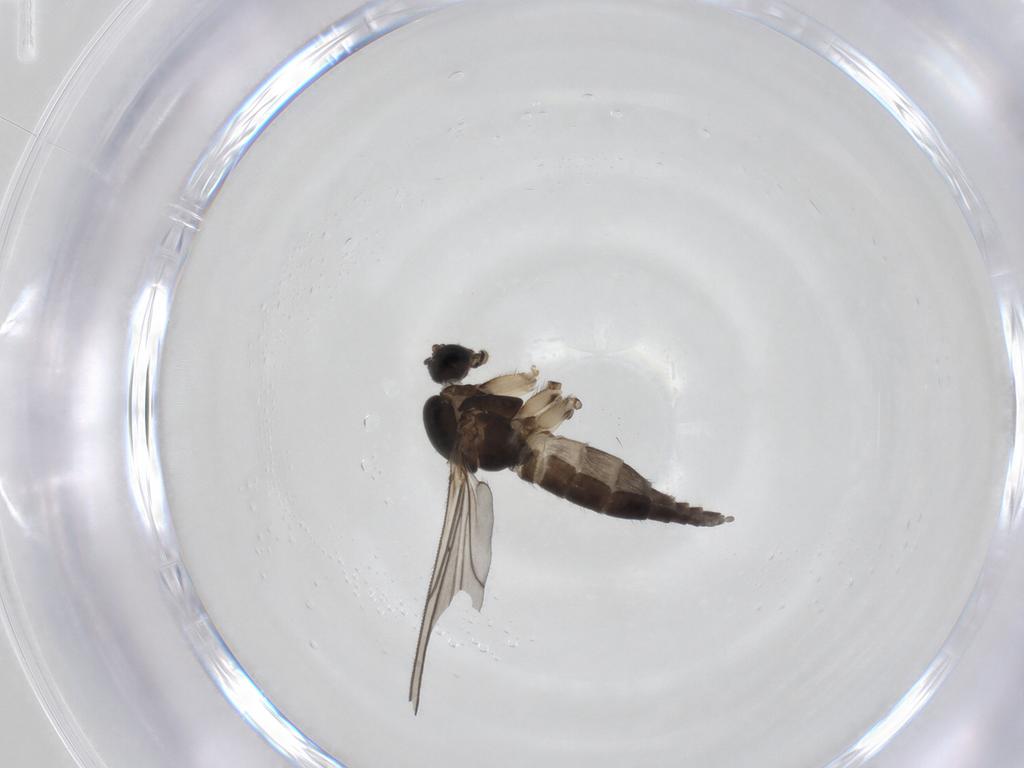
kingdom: Animalia
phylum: Arthropoda
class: Insecta
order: Diptera
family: Sciaridae
